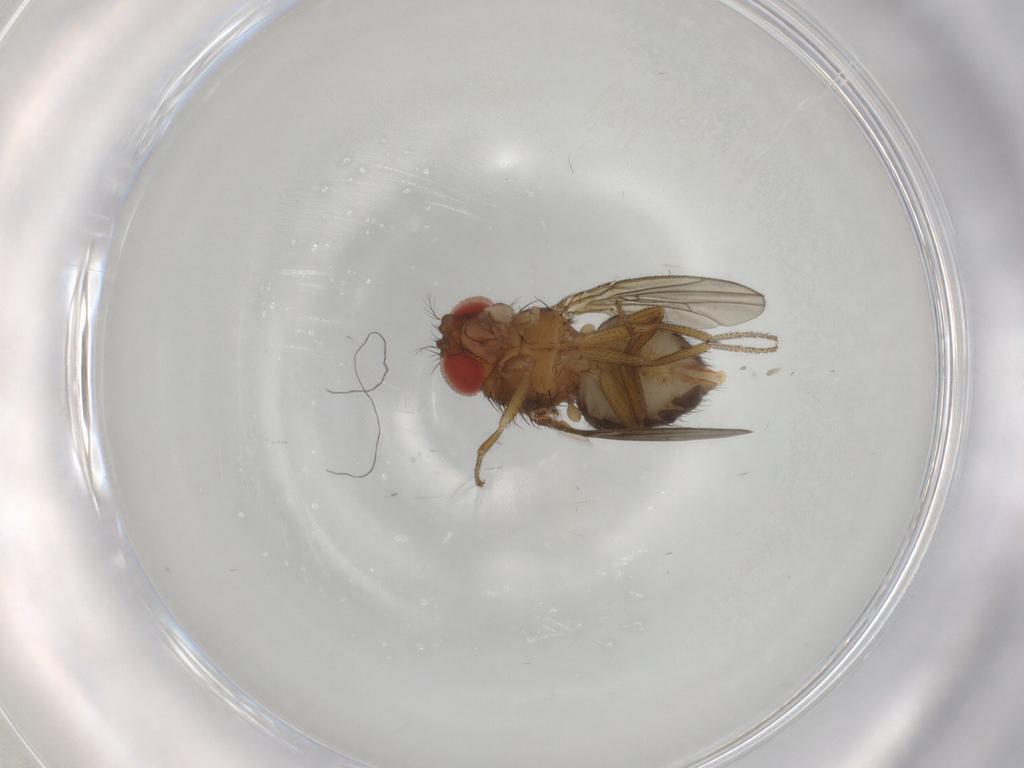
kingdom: Animalia
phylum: Arthropoda
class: Insecta
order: Diptera
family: Drosophilidae
